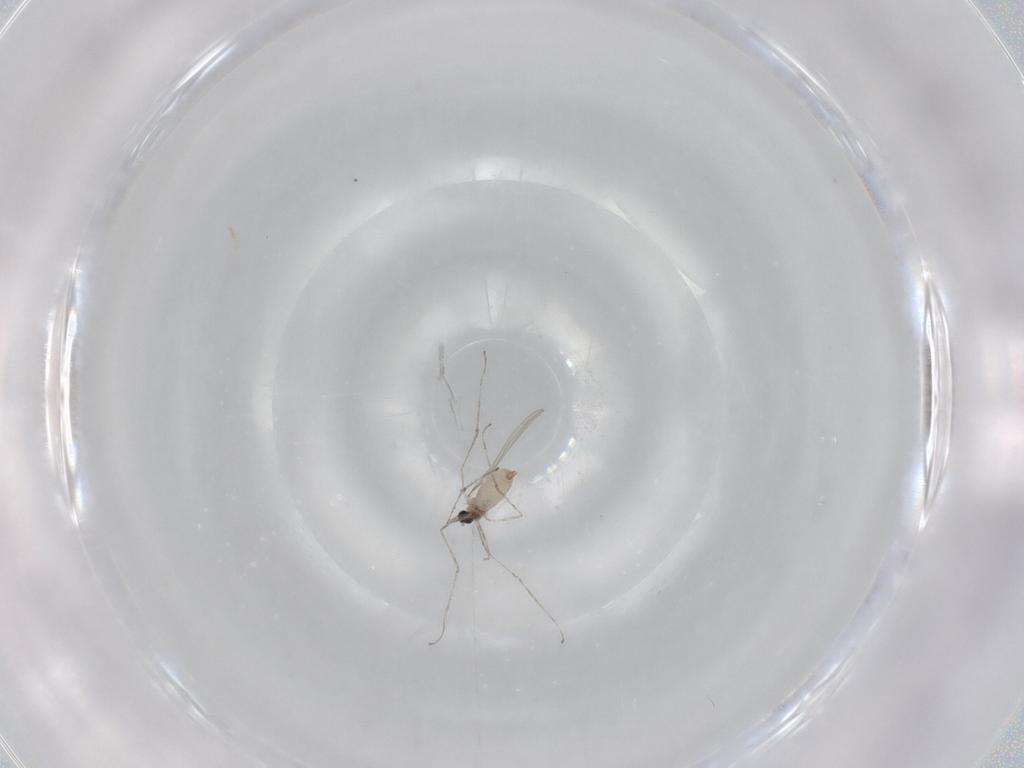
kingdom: Animalia
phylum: Arthropoda
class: Insecta
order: Diptera
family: Cecidomyiidae
